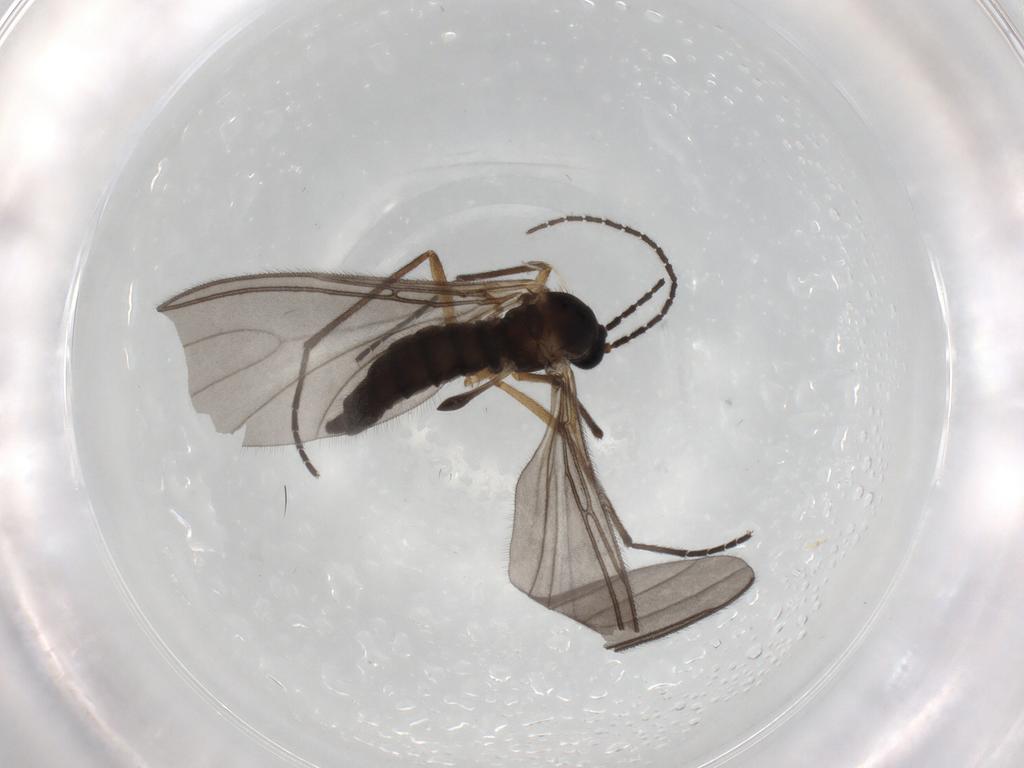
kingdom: Animalia
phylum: Arthropoda
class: Insecta
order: Diptera
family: Sciaridae
